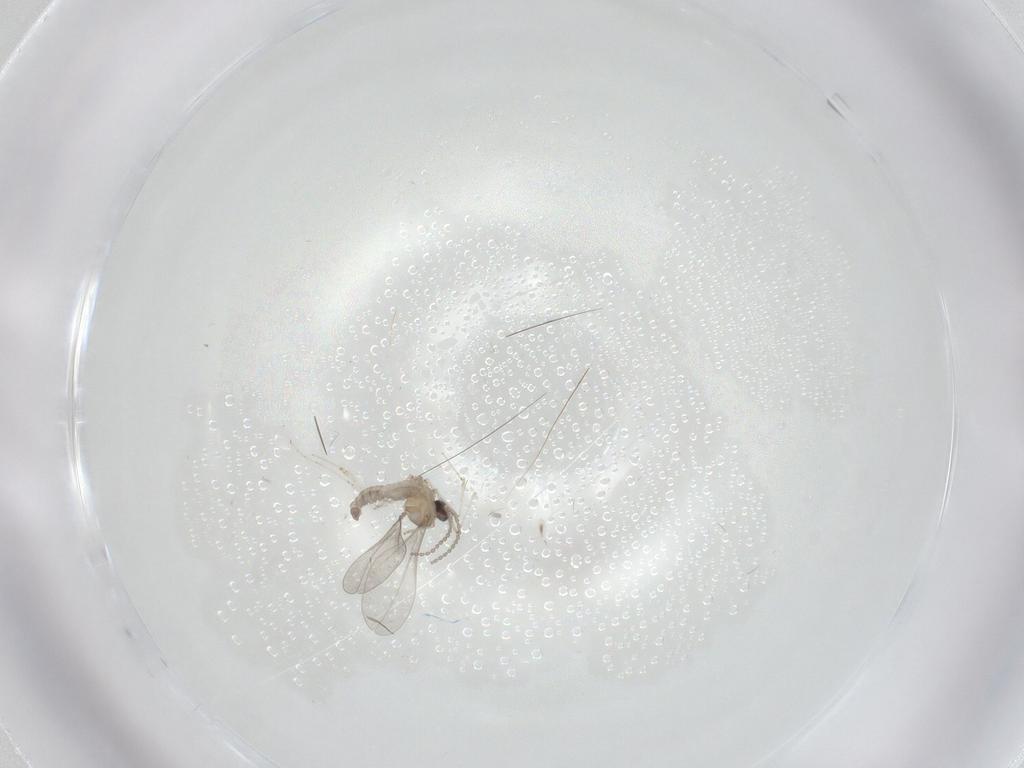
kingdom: Animalia
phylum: Arthropoda
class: Insecta
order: Diptera
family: Cecidomyiidae
